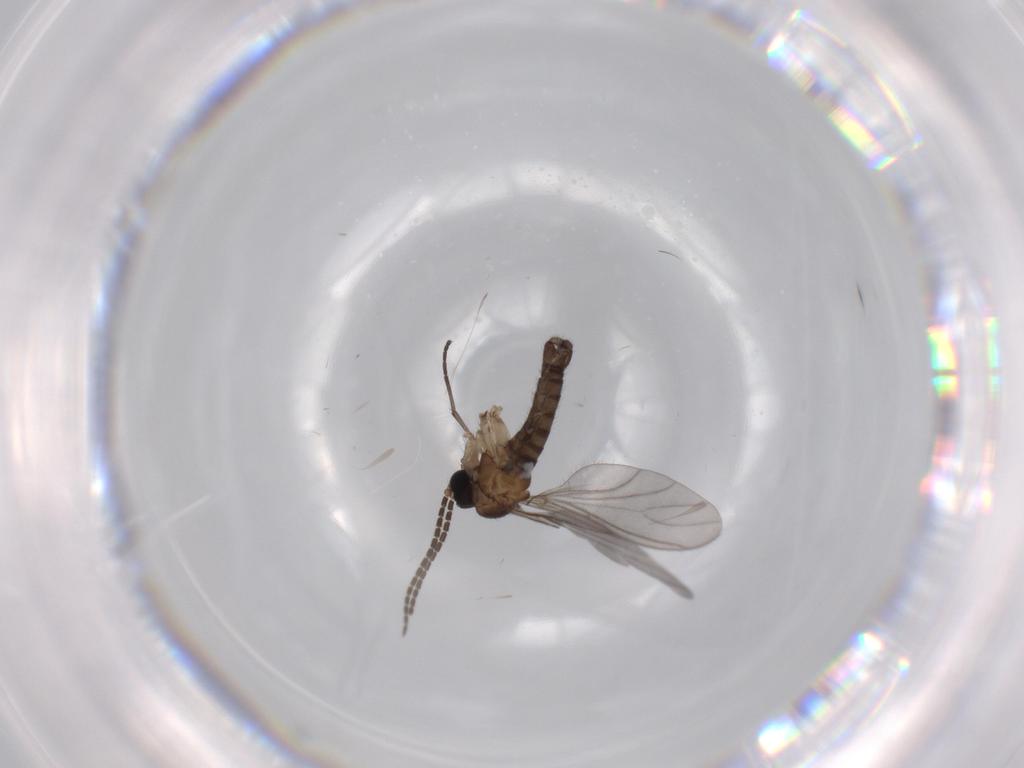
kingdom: Animalia
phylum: Arthropoda
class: Insecta
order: Diptera
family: Sciaridae
